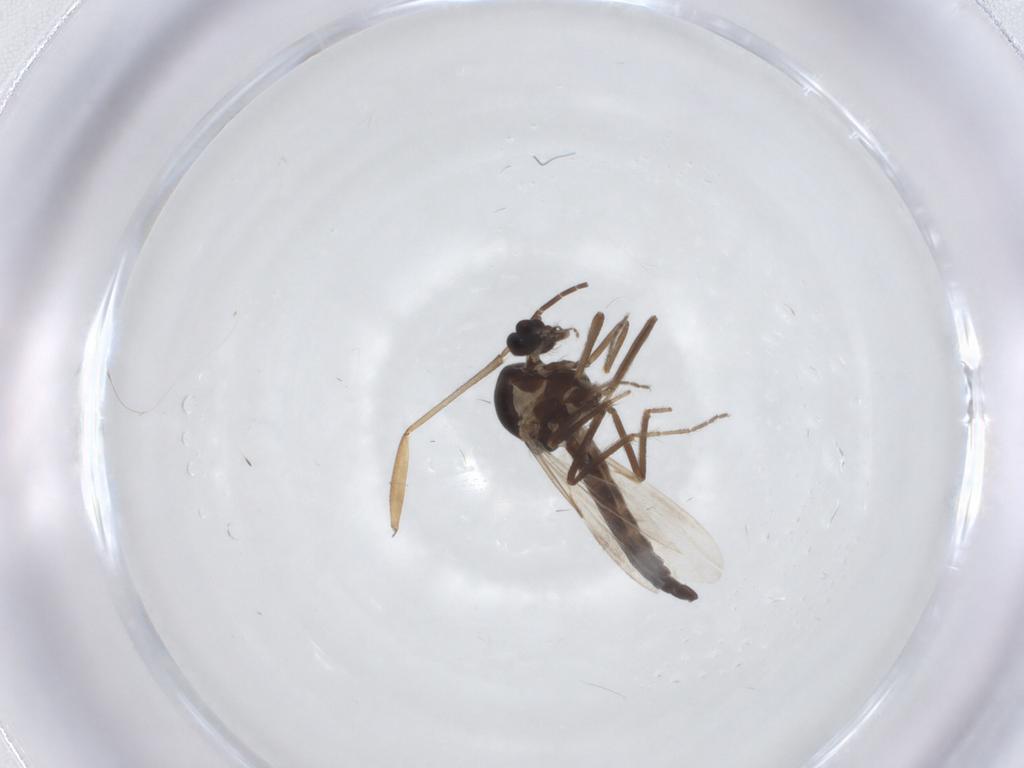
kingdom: Animalia
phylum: Arthropoda
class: Insecta
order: Diptera
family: Ceratopogonidae
